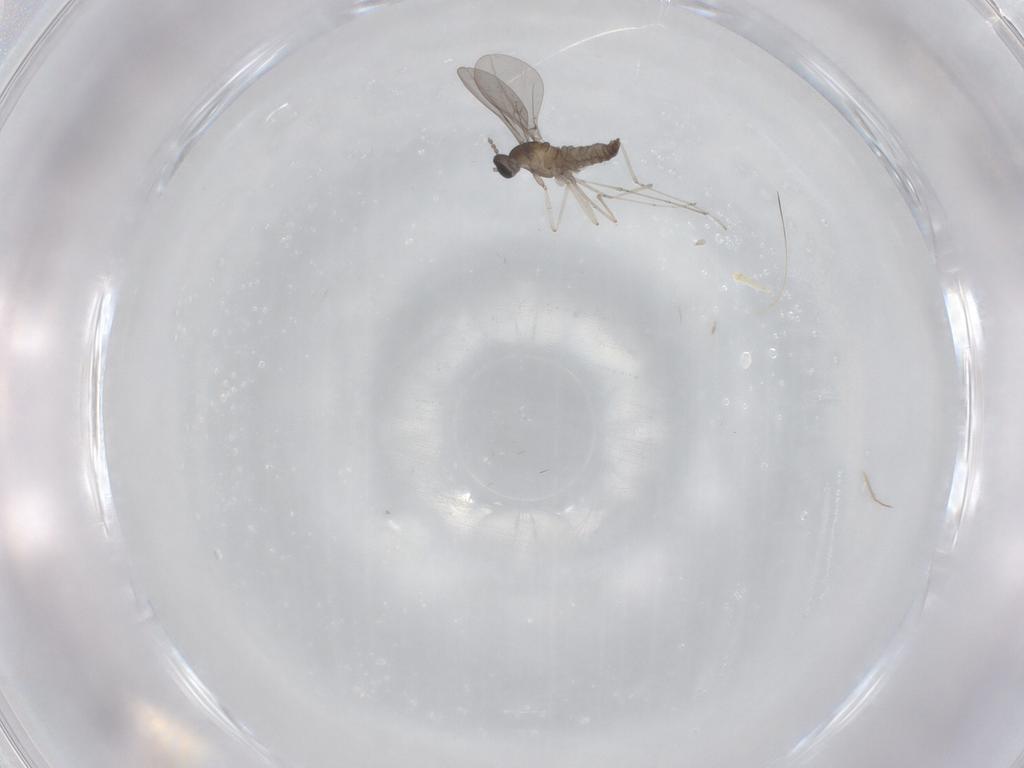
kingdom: Animalia
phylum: Arthropoda
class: Insecta
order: Diptera
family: Cecidomyiidae
